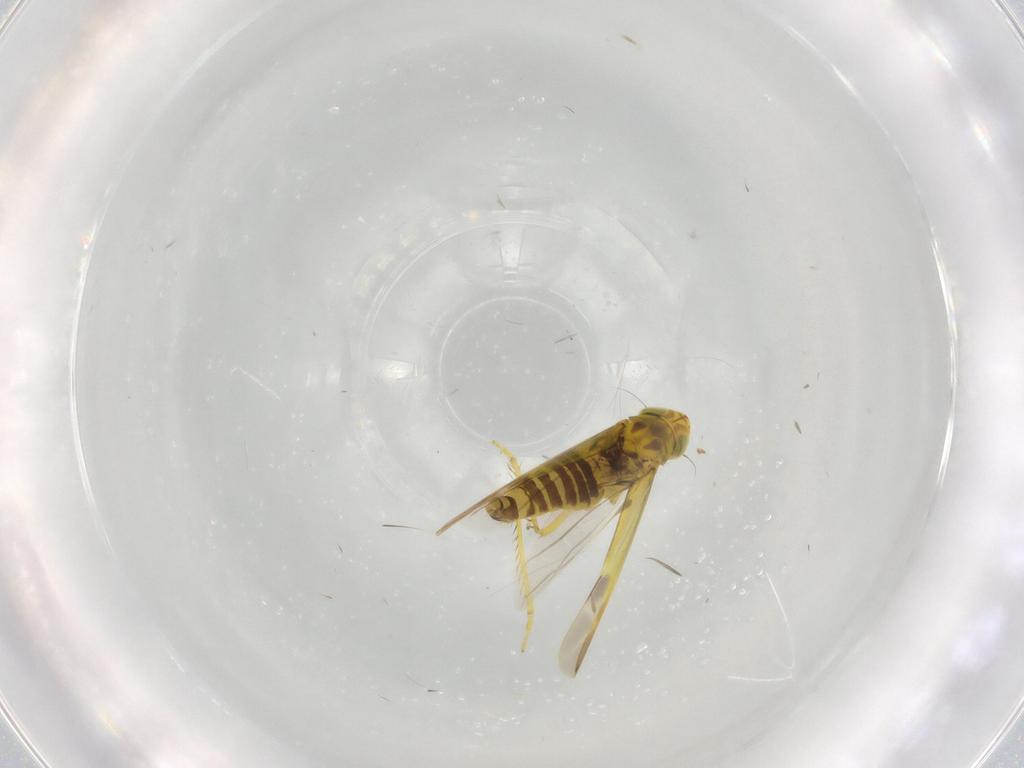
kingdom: Animalia
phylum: Arthropoda
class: Insecta
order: Hemiptera
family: Cicadellidae
